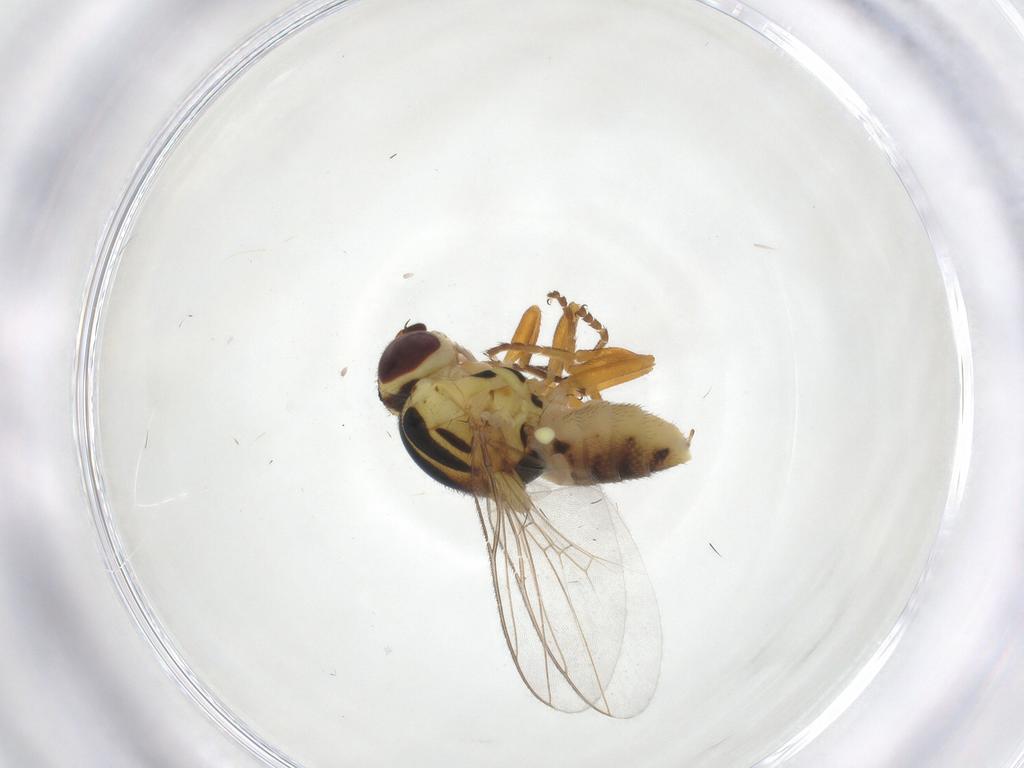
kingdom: Animalia
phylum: Arthropoda
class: Insecta
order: Diptera
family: Chloropidae
